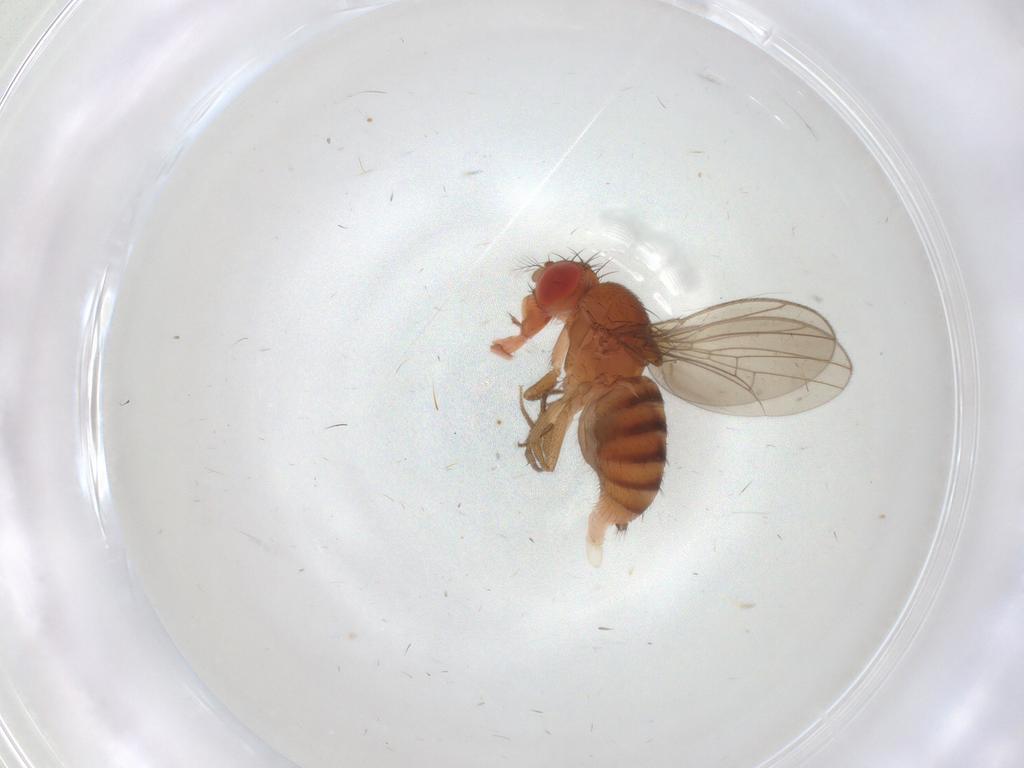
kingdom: Animalia
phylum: Arthropoda
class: Insecta
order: Diptera
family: Drosophilidae
